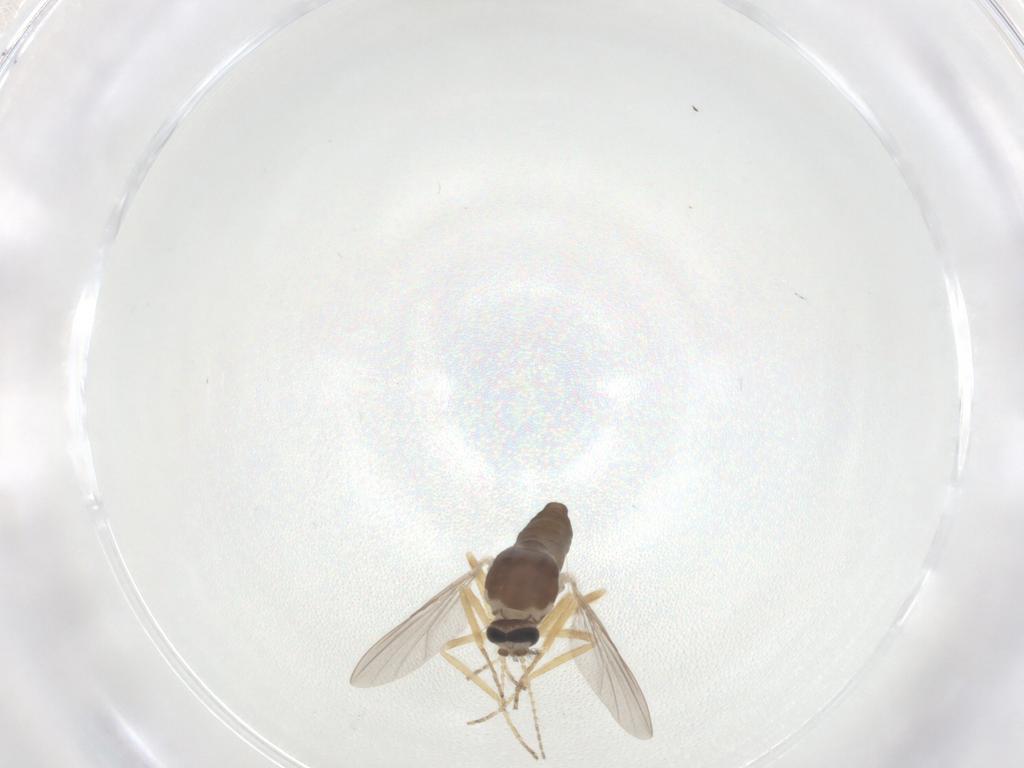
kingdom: Animalia
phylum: Arthropoda
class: Insecta
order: Diptera
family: Ceratopogonidae
